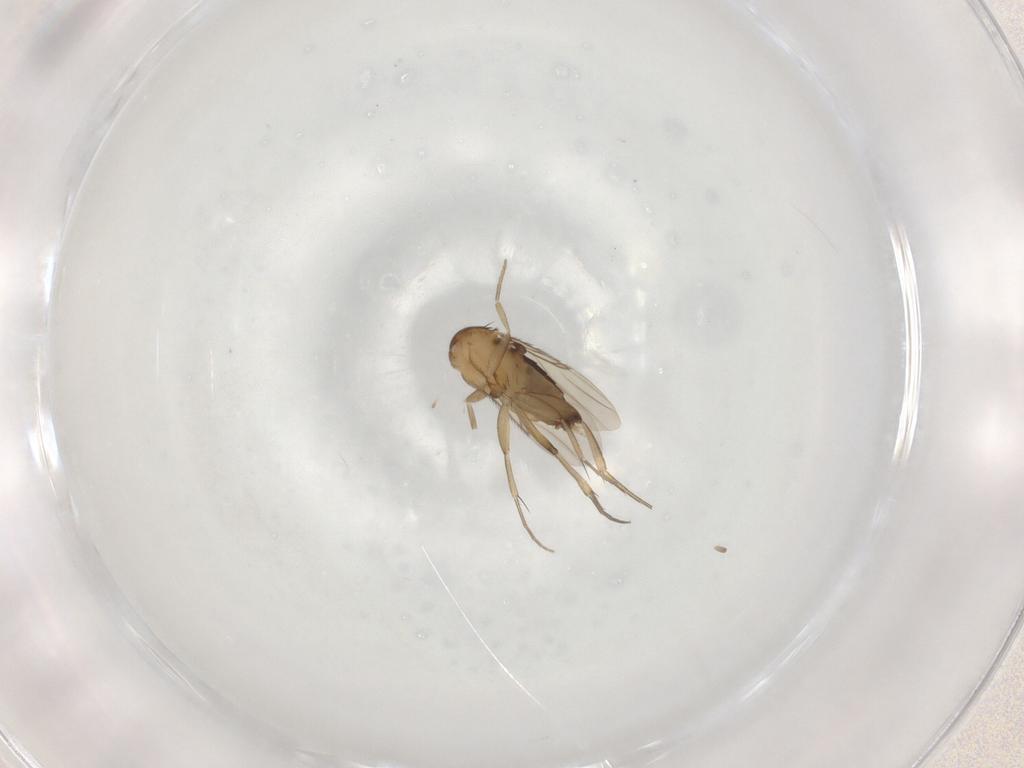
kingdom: Animalia
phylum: Arthropoda
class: Insecta
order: Diptera
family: Phoridae
